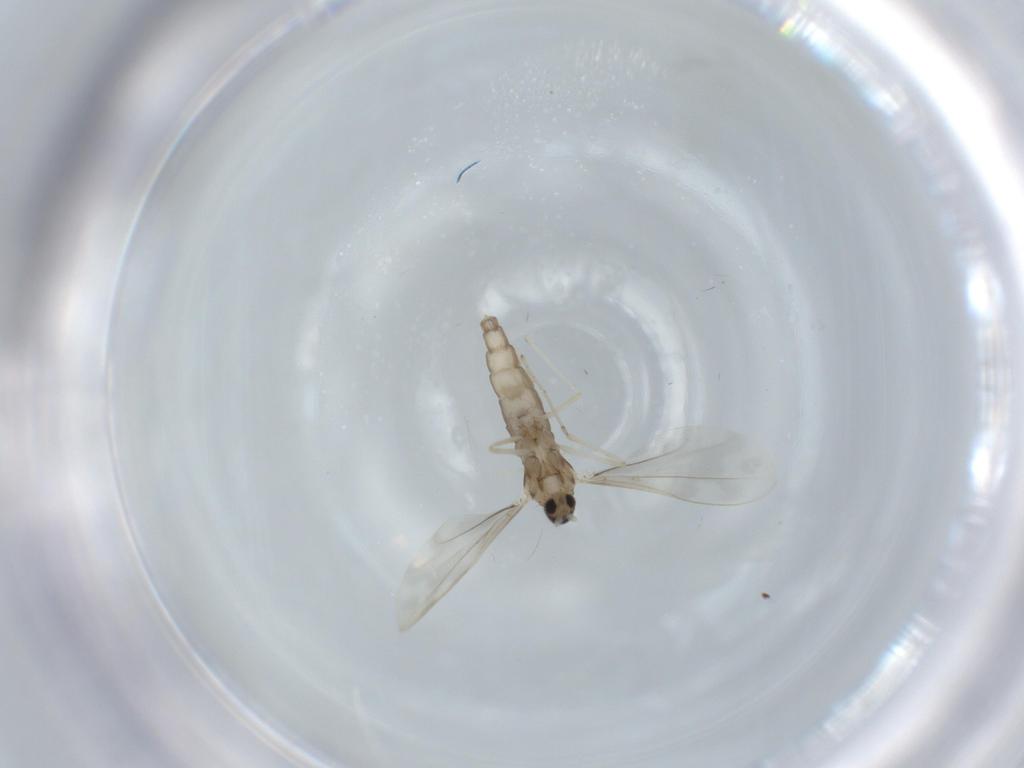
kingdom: Animalia
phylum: Arthropoda
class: Insecta
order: Diptera
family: Cecidomyiidae
